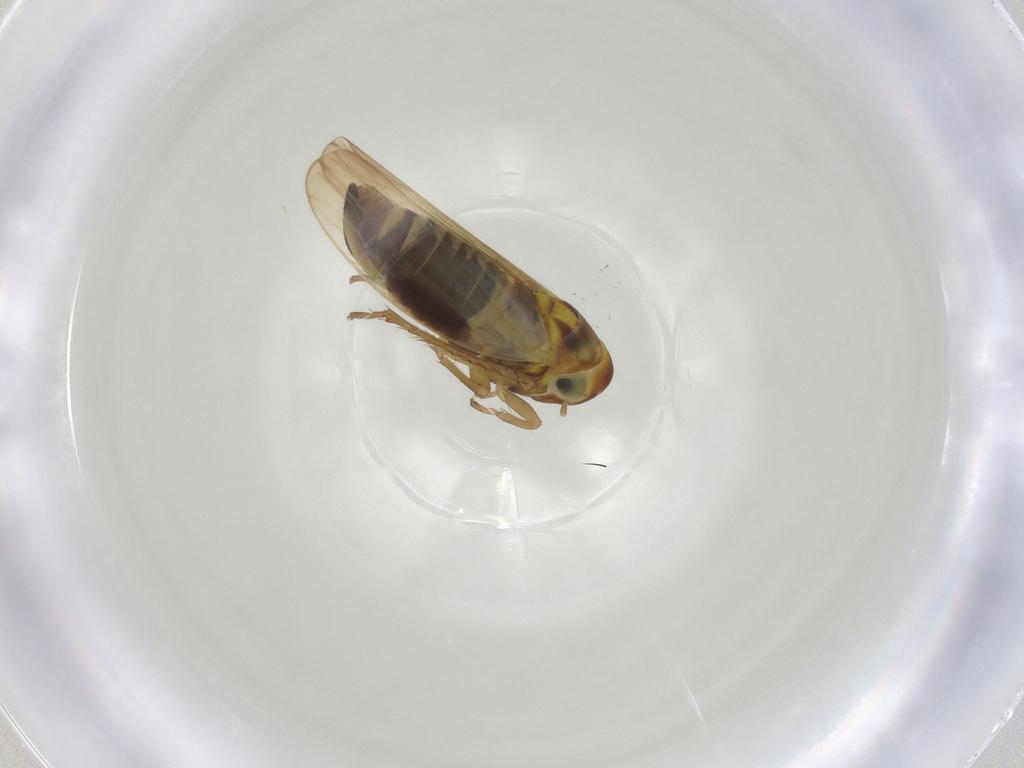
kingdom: Animalia
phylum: Arthropoda
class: Insecta
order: Hemiptera
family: Cicadellidae
